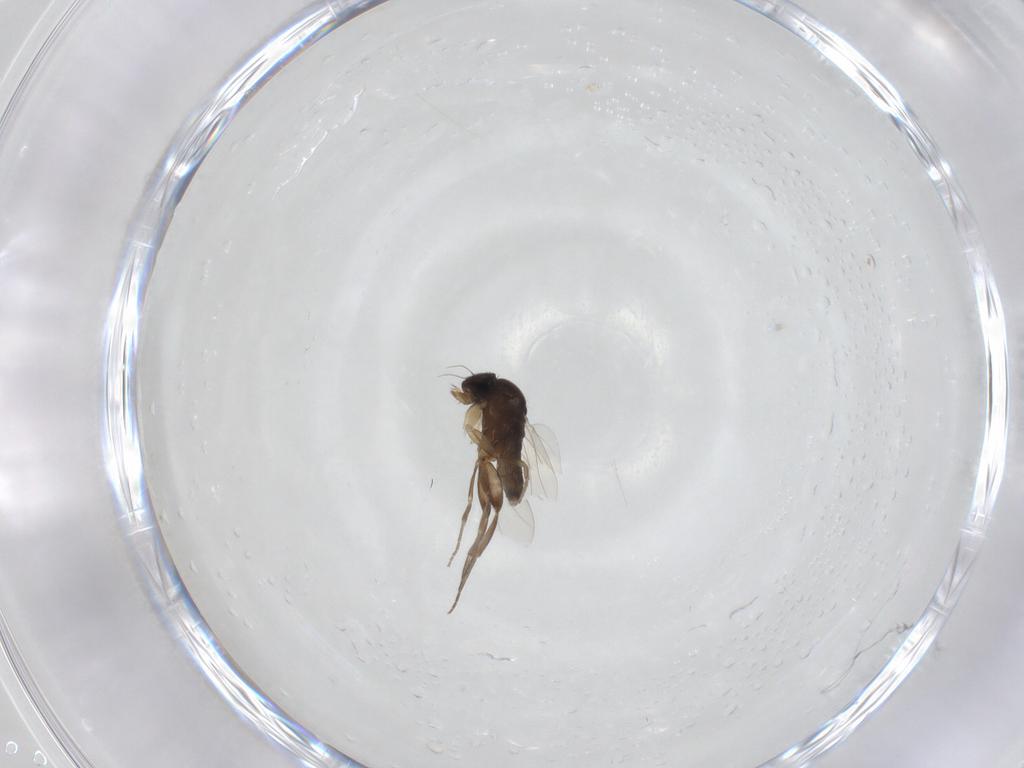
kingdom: Animalia
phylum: Arthropoda
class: Insecta
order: Diptera
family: Phoridae
